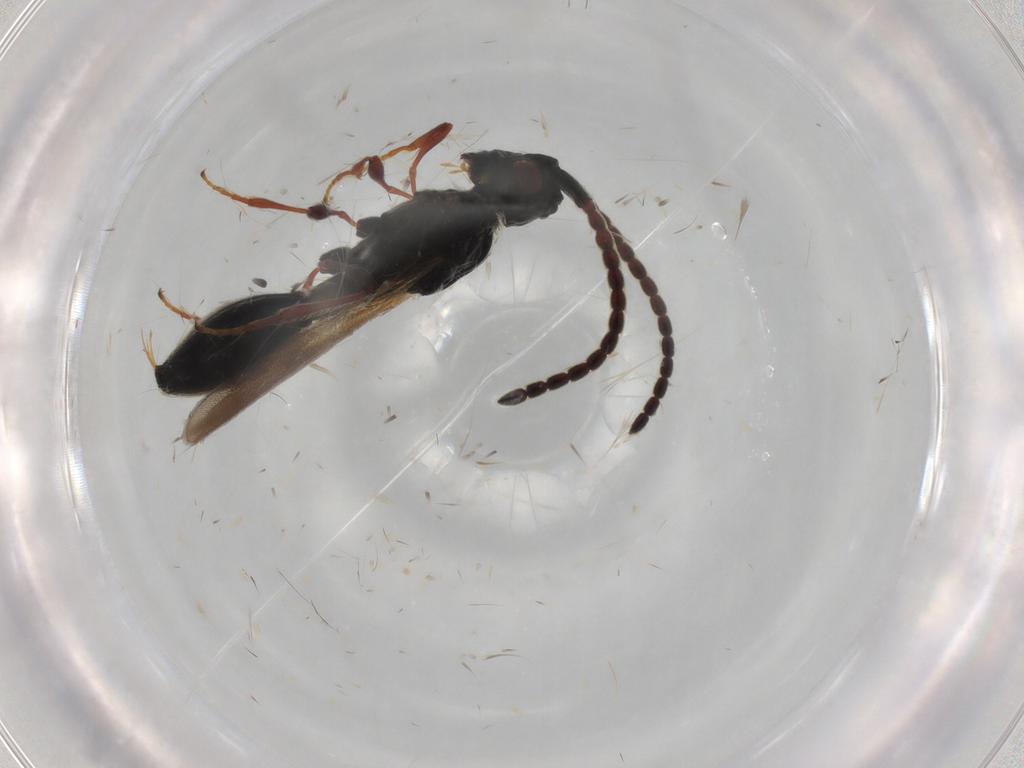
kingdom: Animalia
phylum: Arthropoda
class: Insecta
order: Hymenoptera
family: Diapriidae
